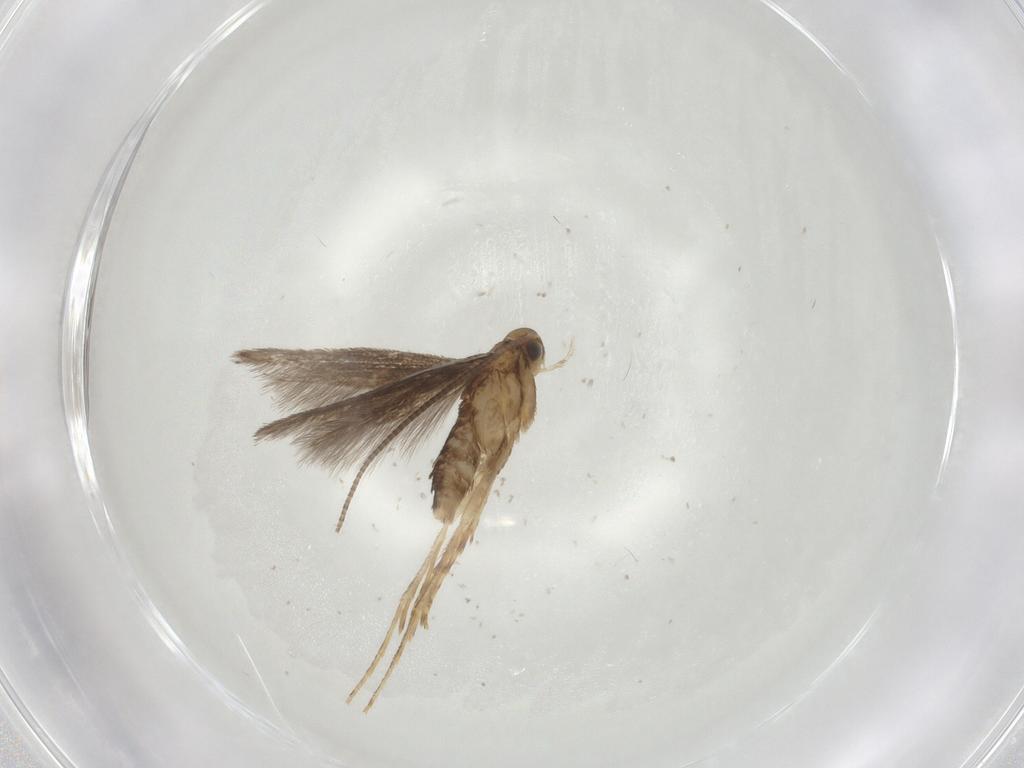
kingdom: Animalia
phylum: Arthropoda
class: Insecta
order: Lepidoptera
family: Nepticulidae
